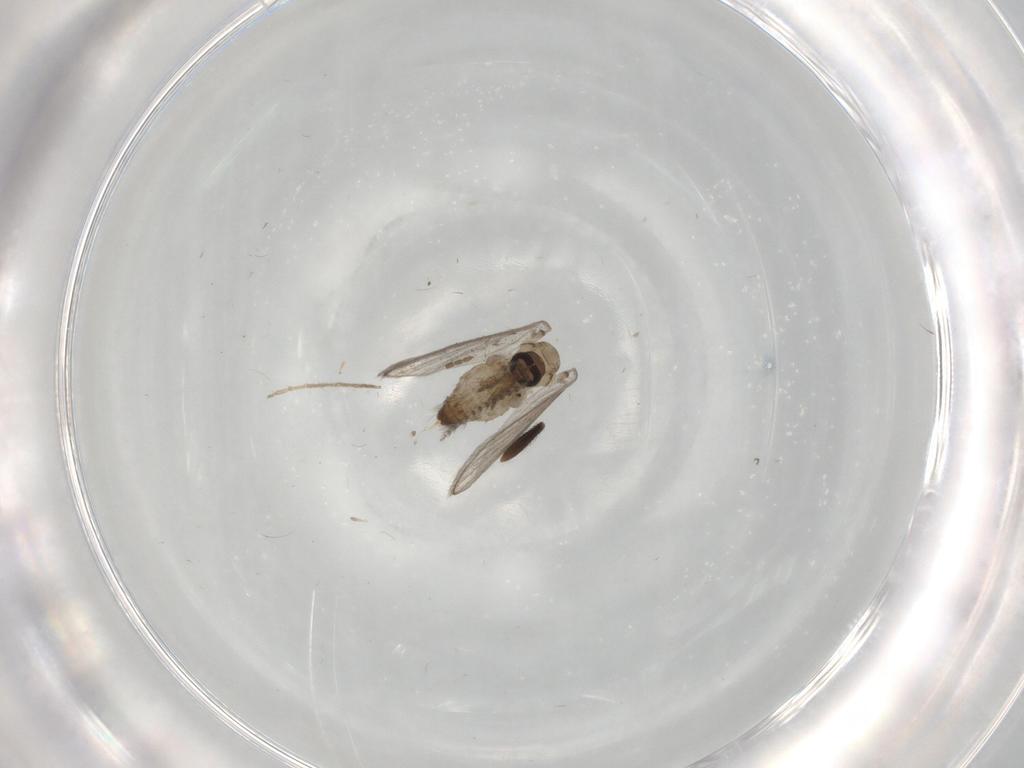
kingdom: Animalia
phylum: Arthropoda
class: Insecta
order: Diptera
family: Psychodidae
